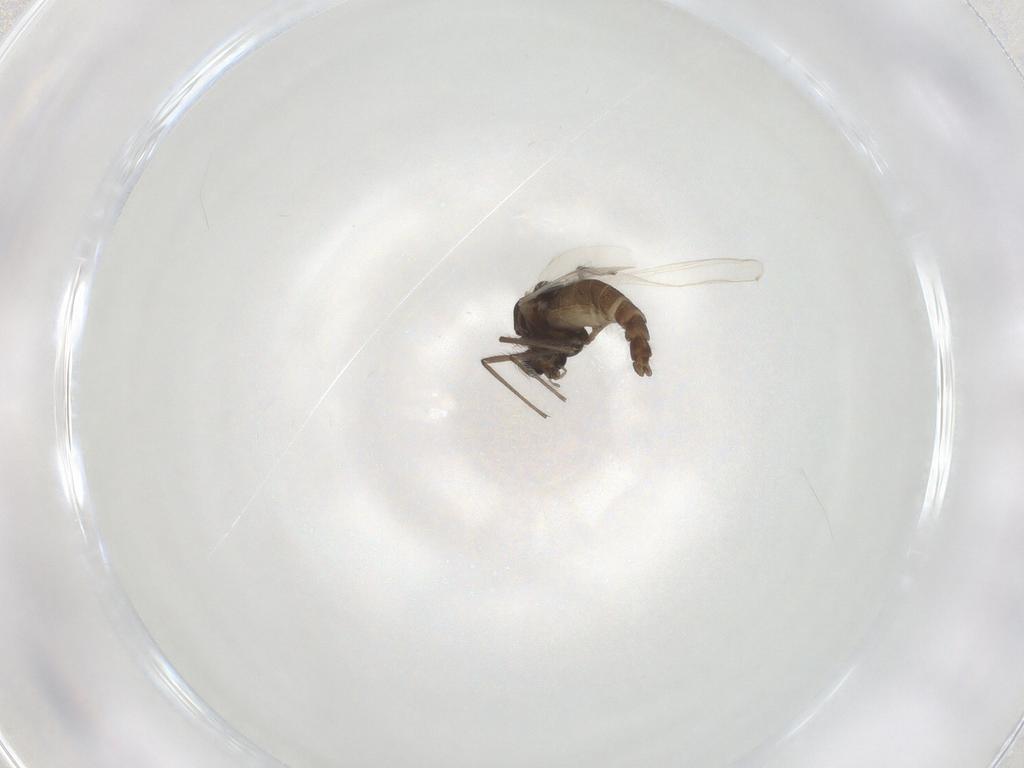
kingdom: Animalia
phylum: Arthropoda
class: Insecta
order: Diptera
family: Chironomidae
